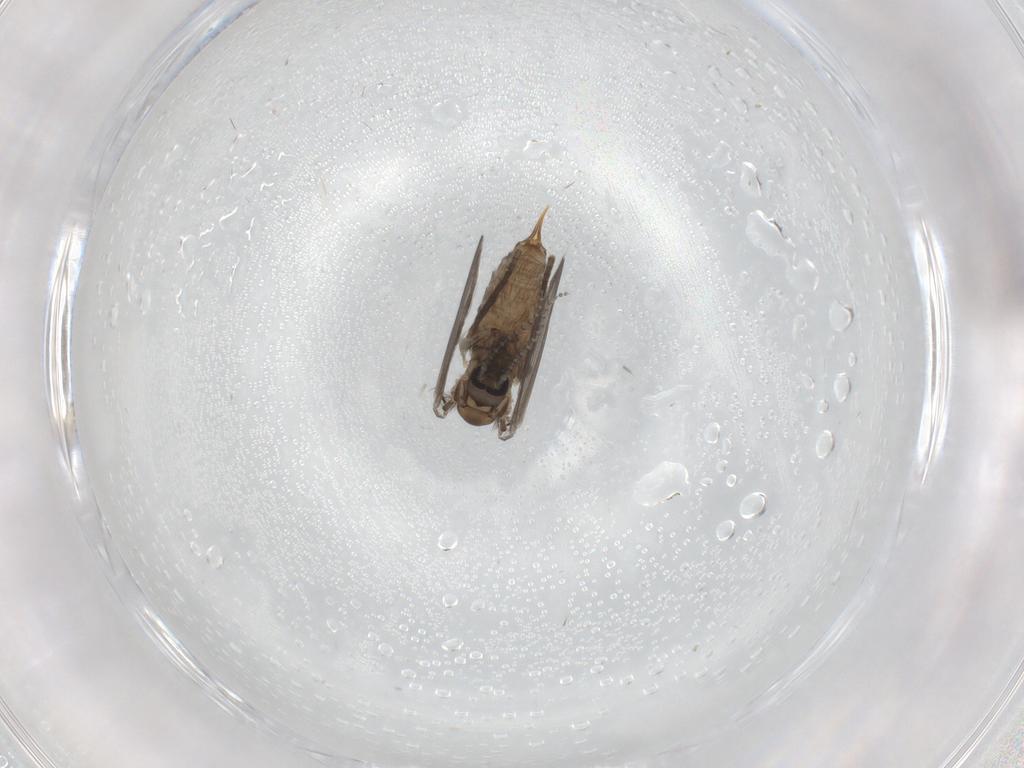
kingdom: Animalia
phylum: Arthropoda
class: Insecta
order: Diptera
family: Psychodidae
